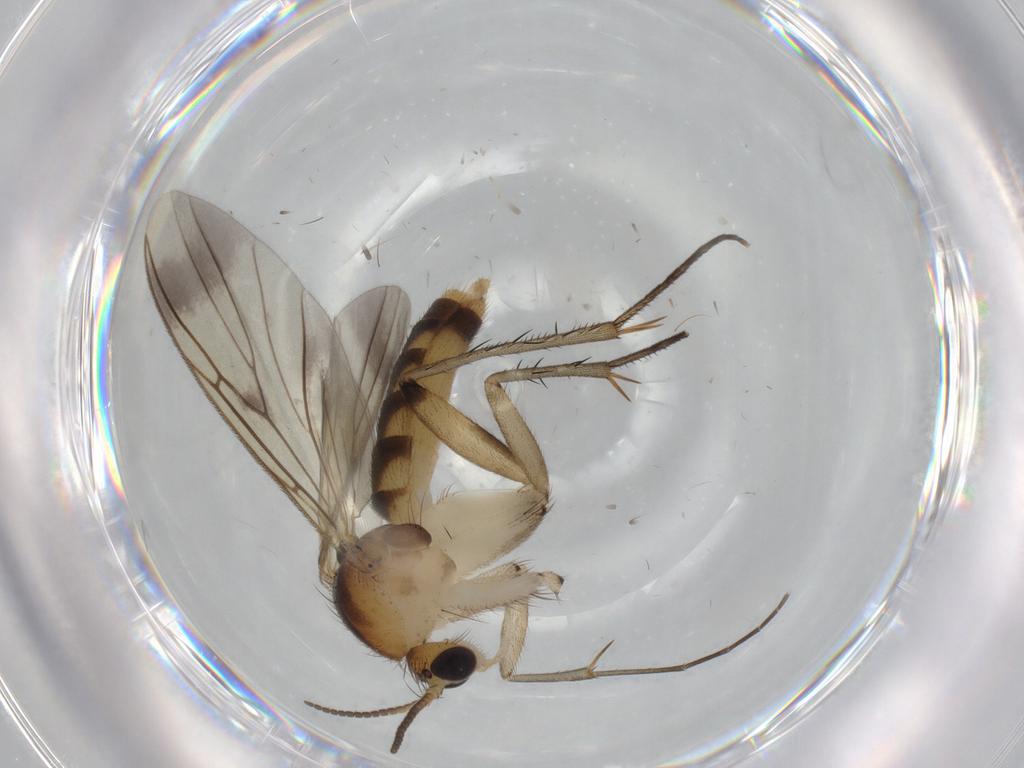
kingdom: Animalia
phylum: Arthropoda
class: Insecta
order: Diptera
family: Mycetophilidae
